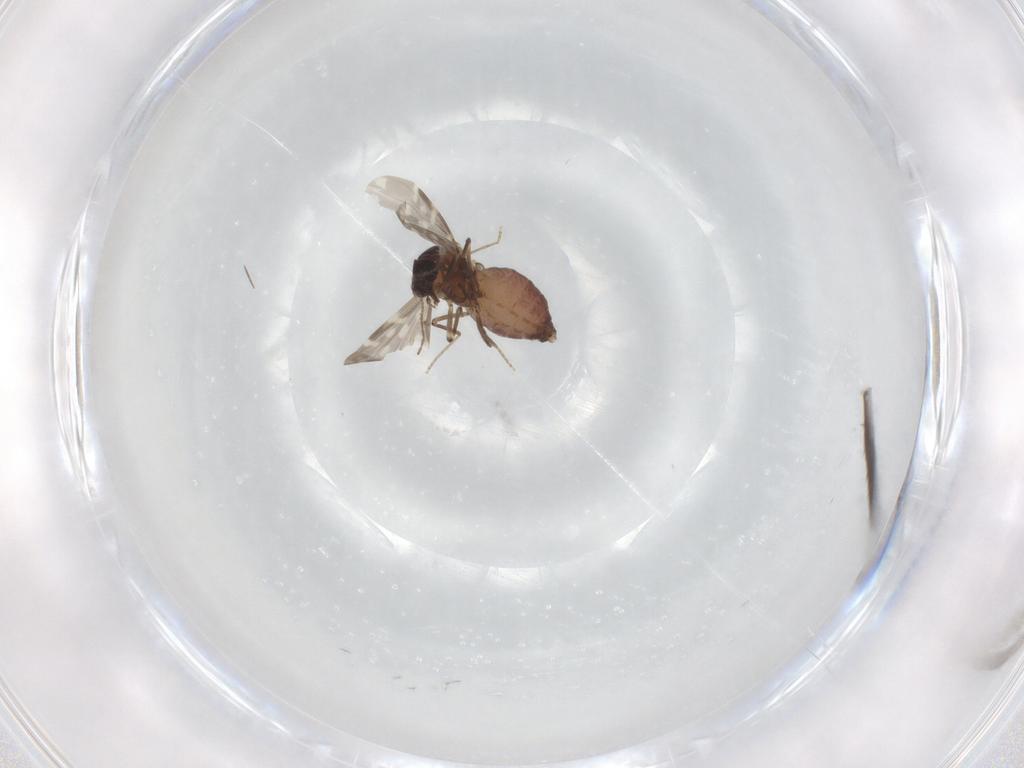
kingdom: Animalia
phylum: Arthropoda
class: Insecta
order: Diptera
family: Ceratopogonidae
